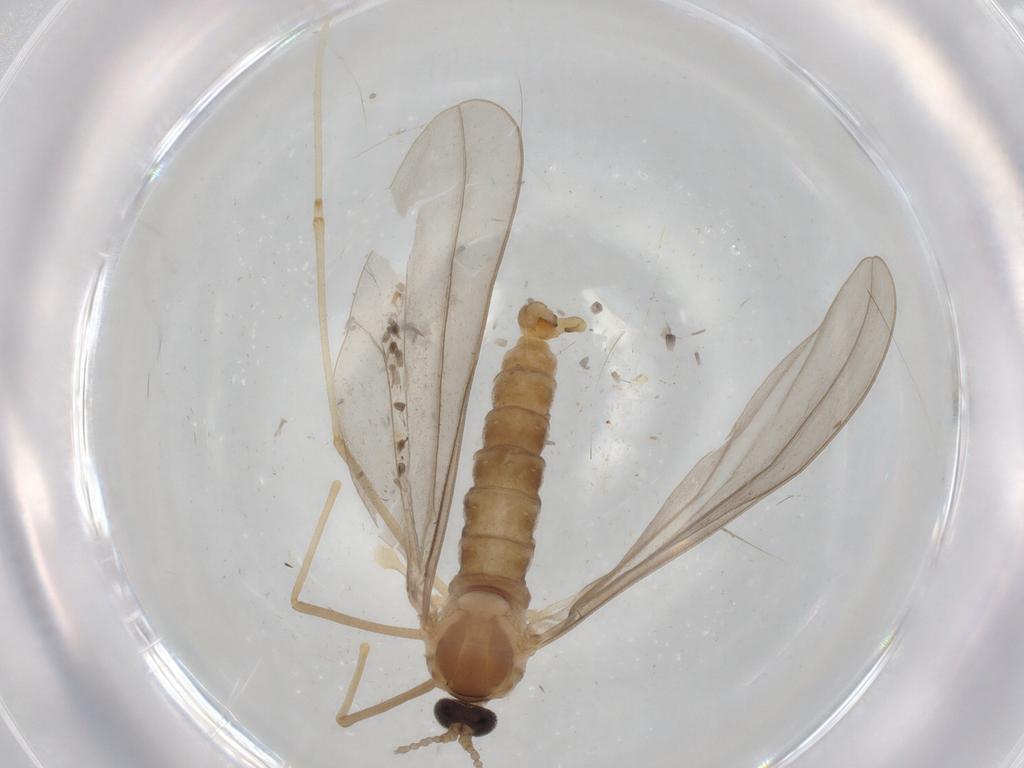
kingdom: Animalia
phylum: Arthropoda
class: Insecta
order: Diptera
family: Cecidomyiidae
